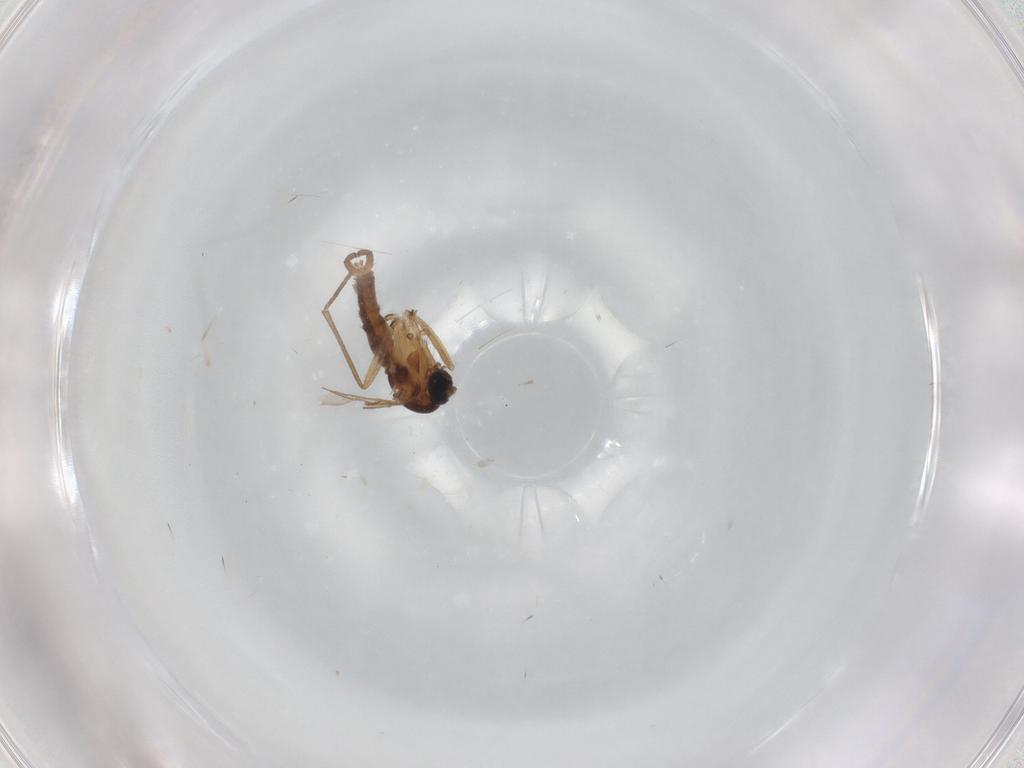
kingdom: Animalia
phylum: Arthropoda
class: Insecta
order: Diptera
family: Sciaridae
